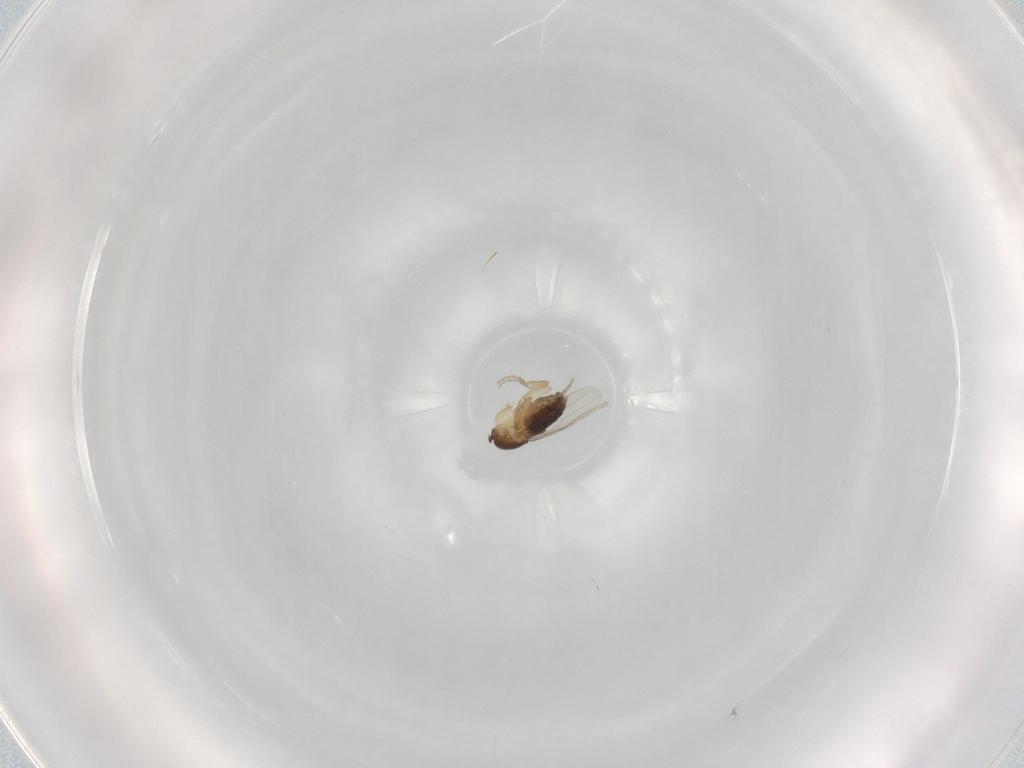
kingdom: Animalia
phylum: Arthropoda
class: Insecta
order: Diptera
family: Phoridae
